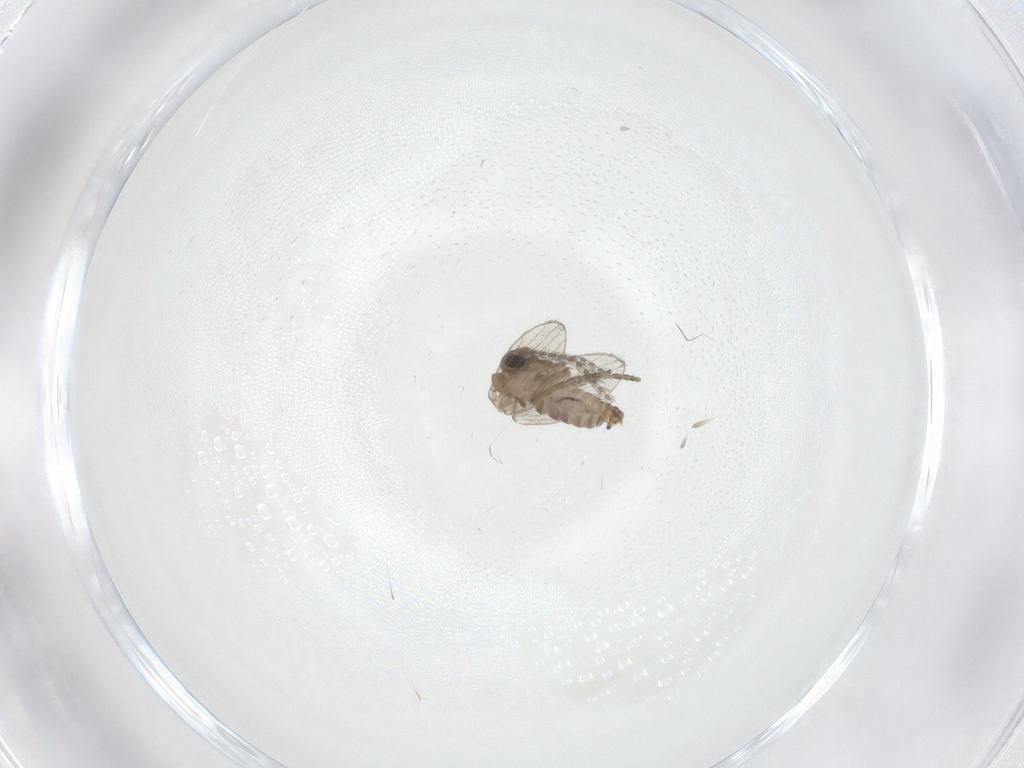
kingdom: Animalia
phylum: Arthropoda
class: Insecta
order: Diptera
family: Psychodidae
